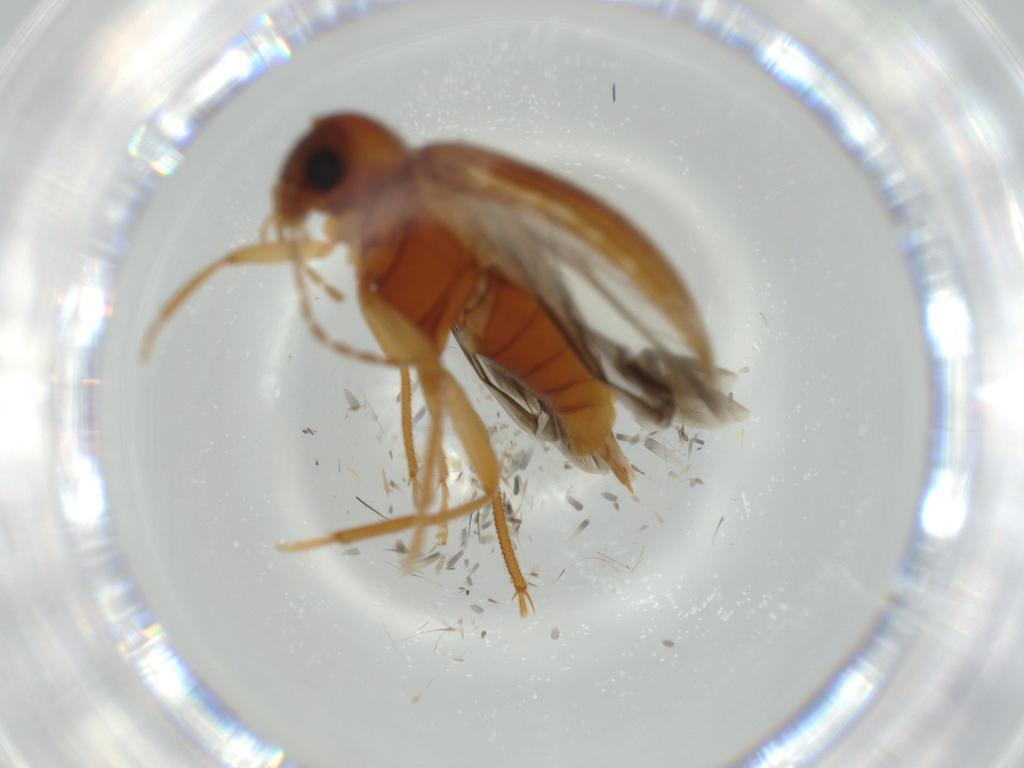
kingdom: Animalia
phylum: Arthropoda
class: Insecta
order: Coleoptera
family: Ptilodactylidae
